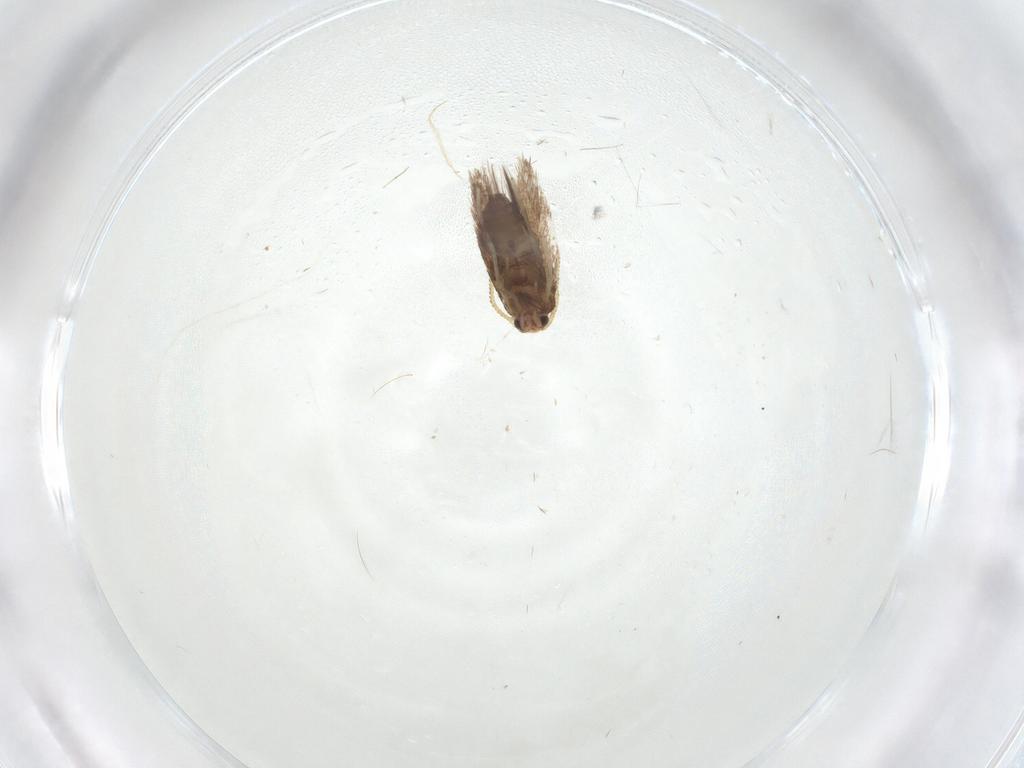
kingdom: Animalia
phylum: Arthropoda
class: Insecta
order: Lepidoptera
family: Nepticulidae
